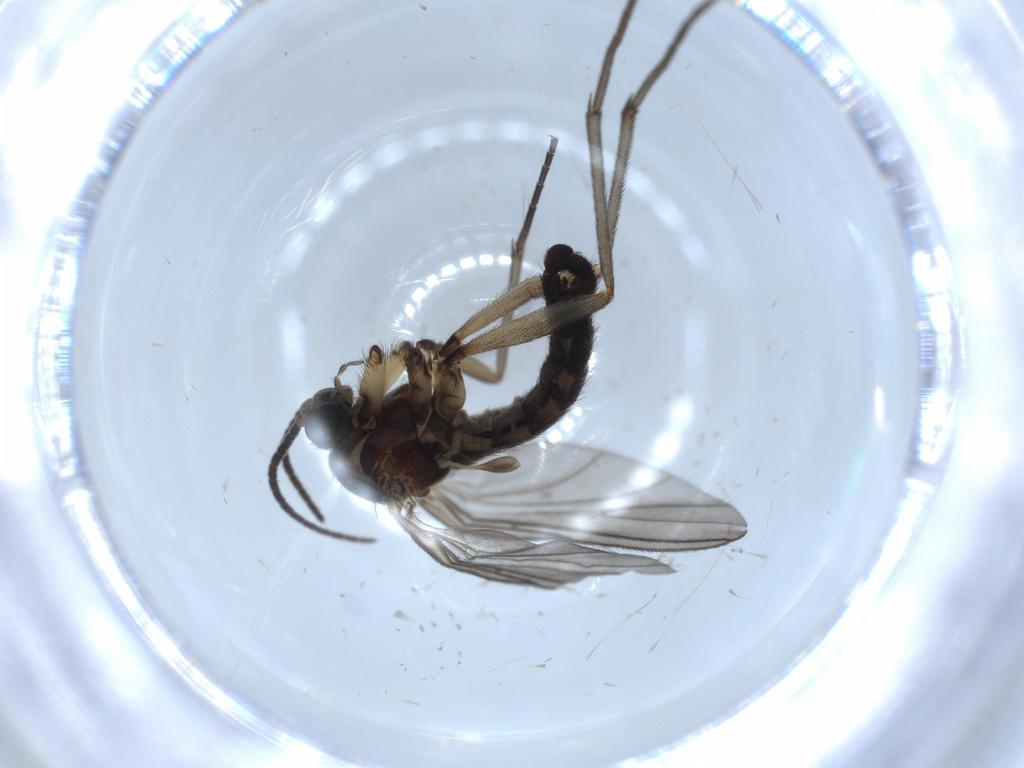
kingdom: Animalia
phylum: Arthropoda
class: Insecta
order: Diptera
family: Sciaridae
